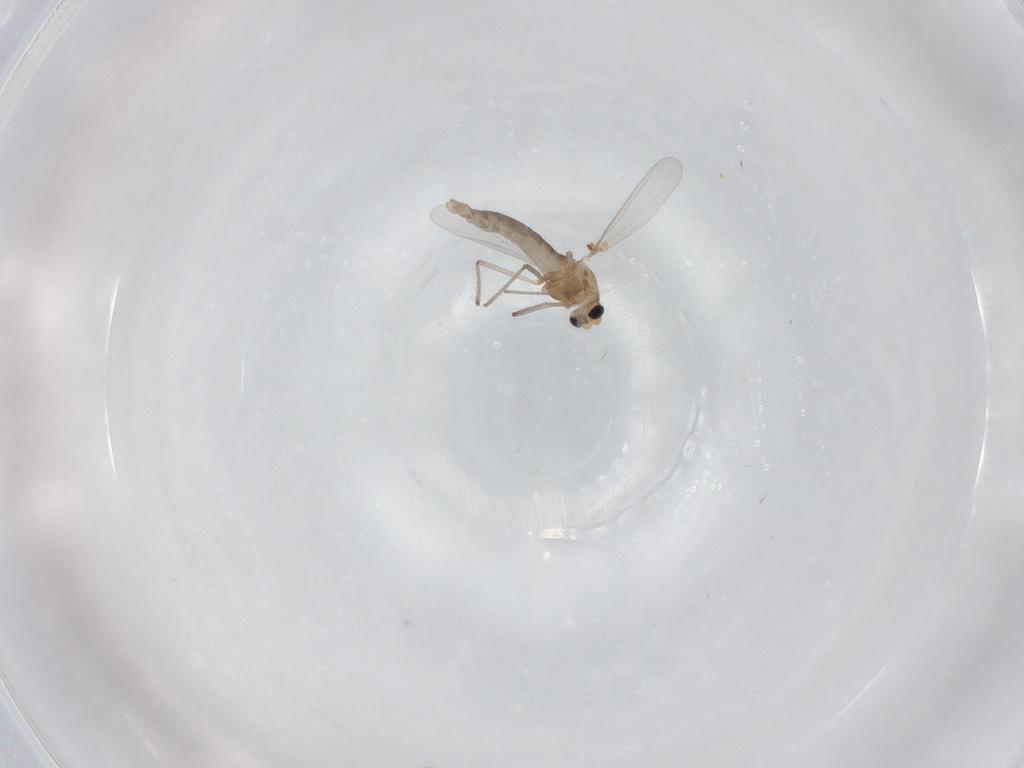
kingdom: Animalia
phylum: Arthropoda
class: Insecta
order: Diptera
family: Chironomidae
